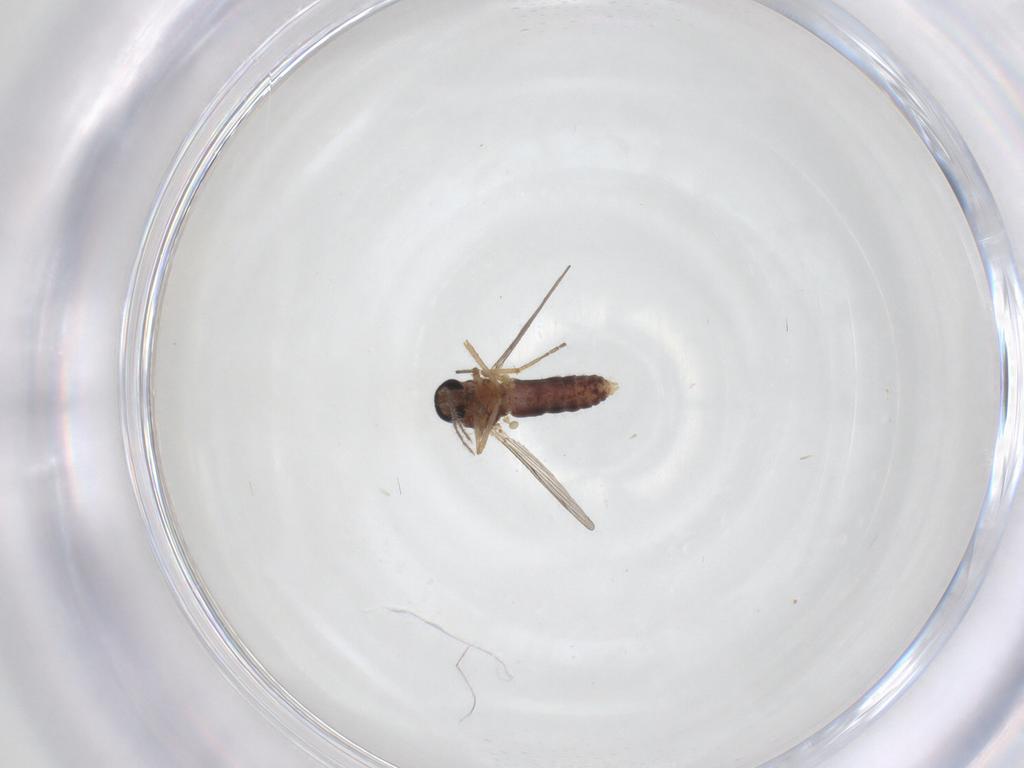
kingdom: Animalia
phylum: Arthropoda
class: Insecta
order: Diptera
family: Ceratopogonidae
